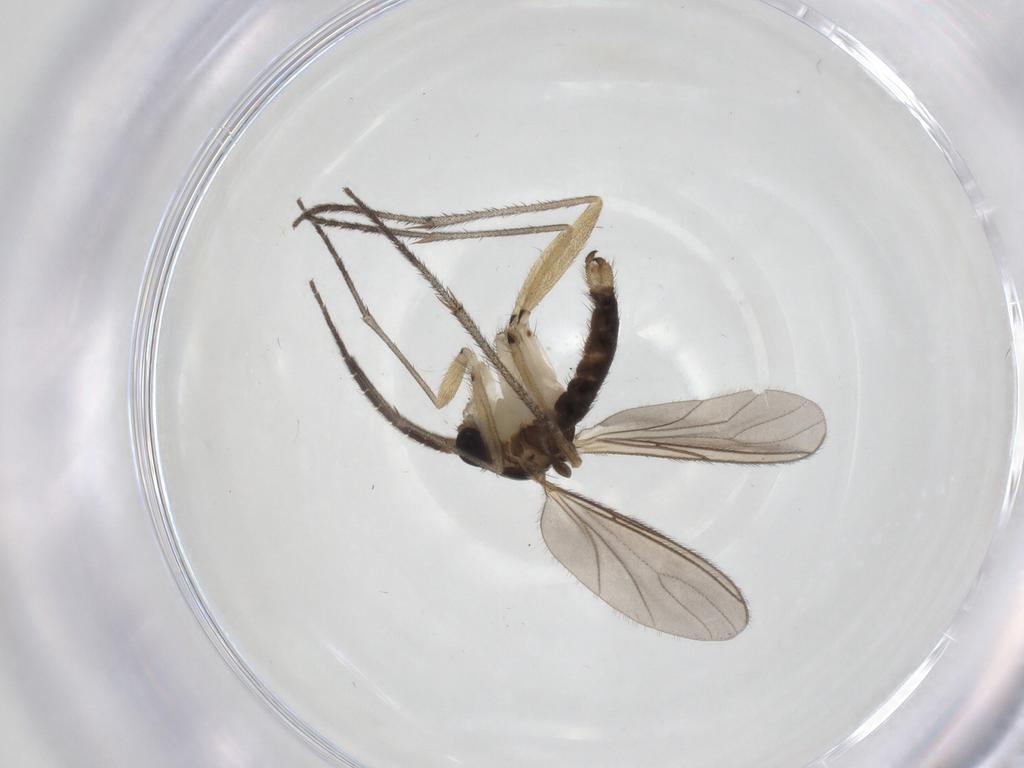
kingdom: Animalia
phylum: Arthropoda
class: Insecta
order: Diptera
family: Sciaridae
